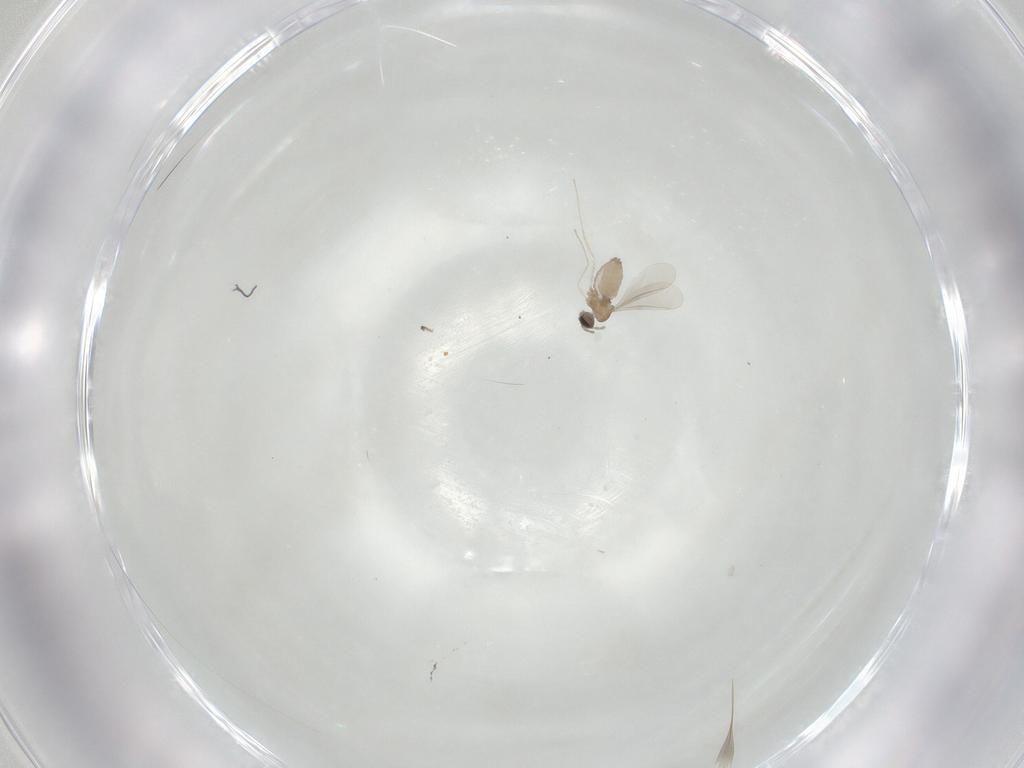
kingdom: Animalia
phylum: Arthropoda
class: Insecta
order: Diptera
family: Cecidomyiidae
